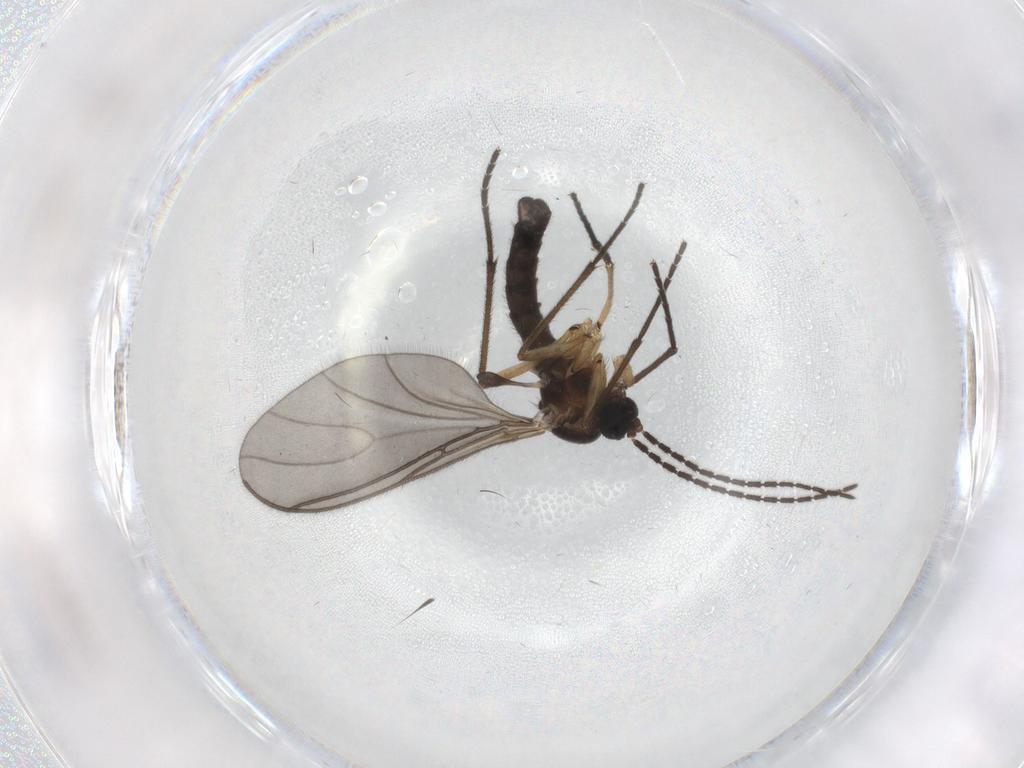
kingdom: Animalia
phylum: Arthropoda
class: Insecta
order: Diptera
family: Sciaridae
